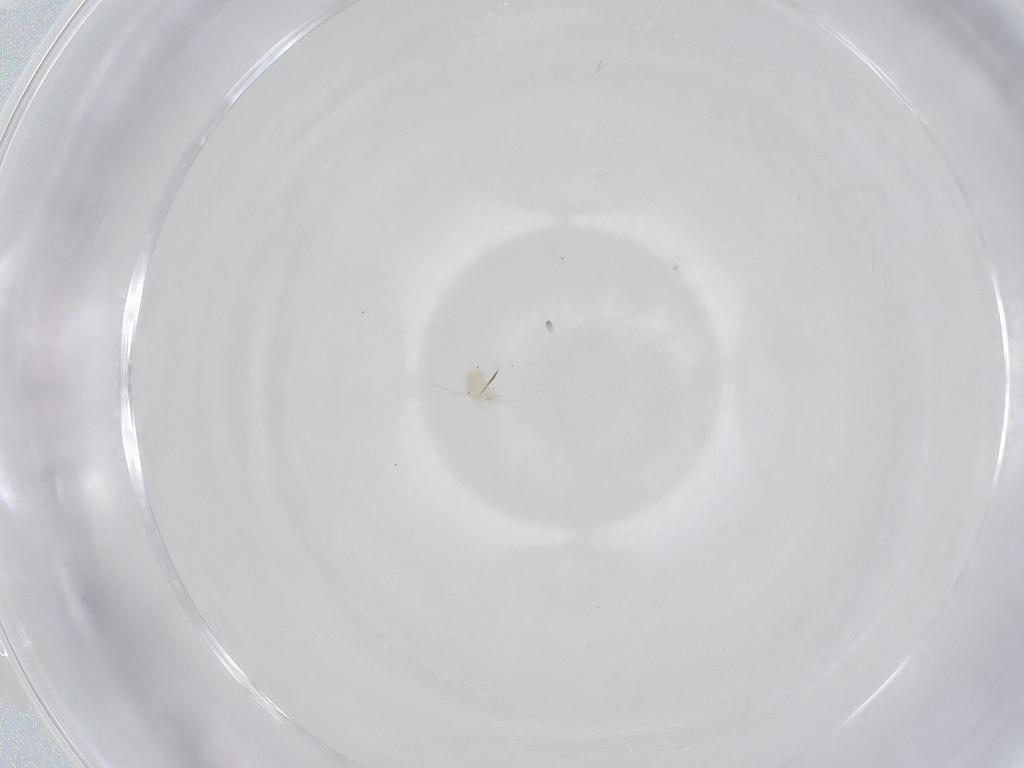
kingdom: Animalia
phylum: Arthropoda
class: Arachnida
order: Trombidiformes
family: Anystidae
